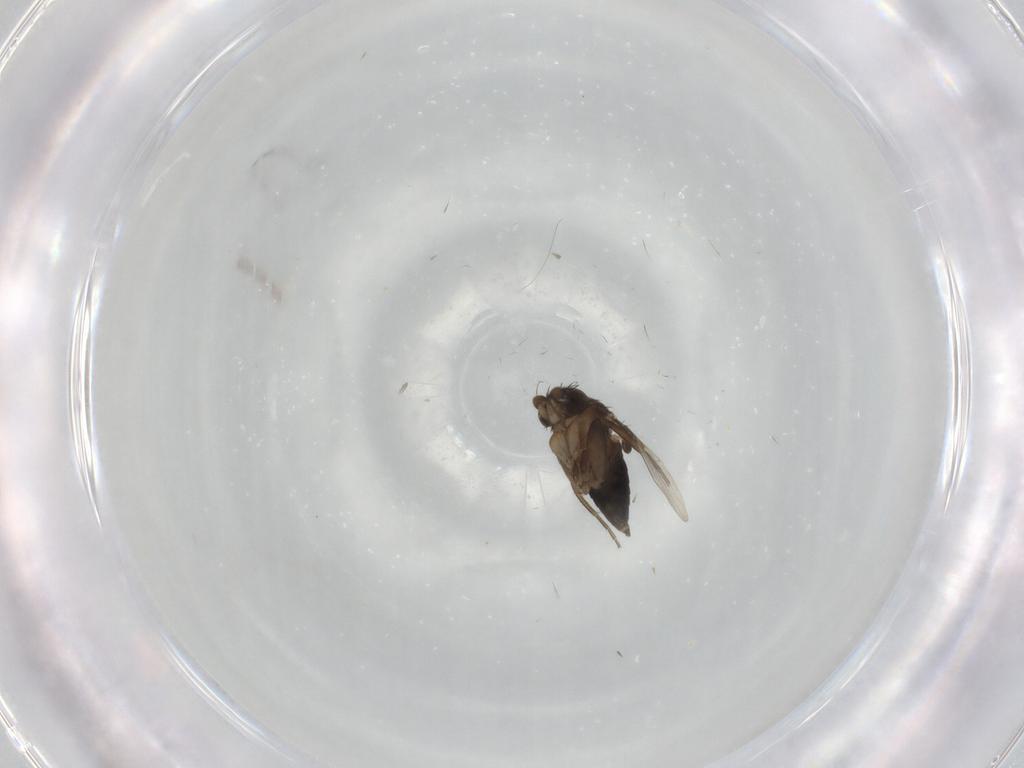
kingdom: Animalia
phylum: Arthropoda
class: Insecta
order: Diptera
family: Phoridae
